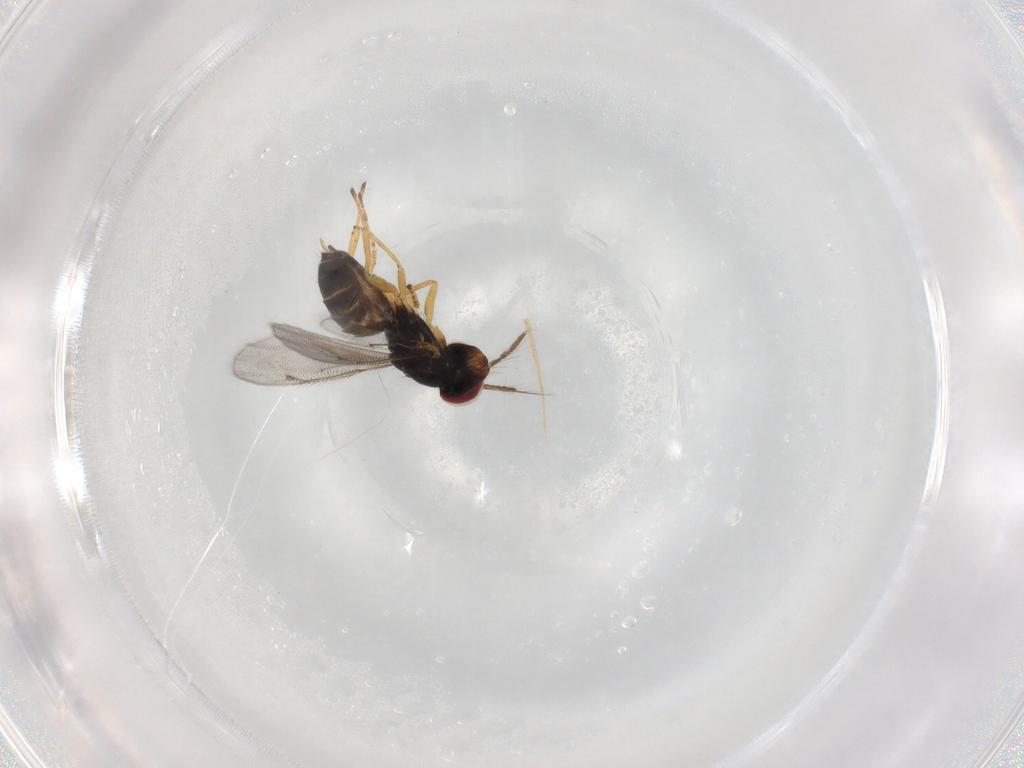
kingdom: Animalia
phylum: Arthropoda
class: Insecta
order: Hymenoptera
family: Eulophidae
